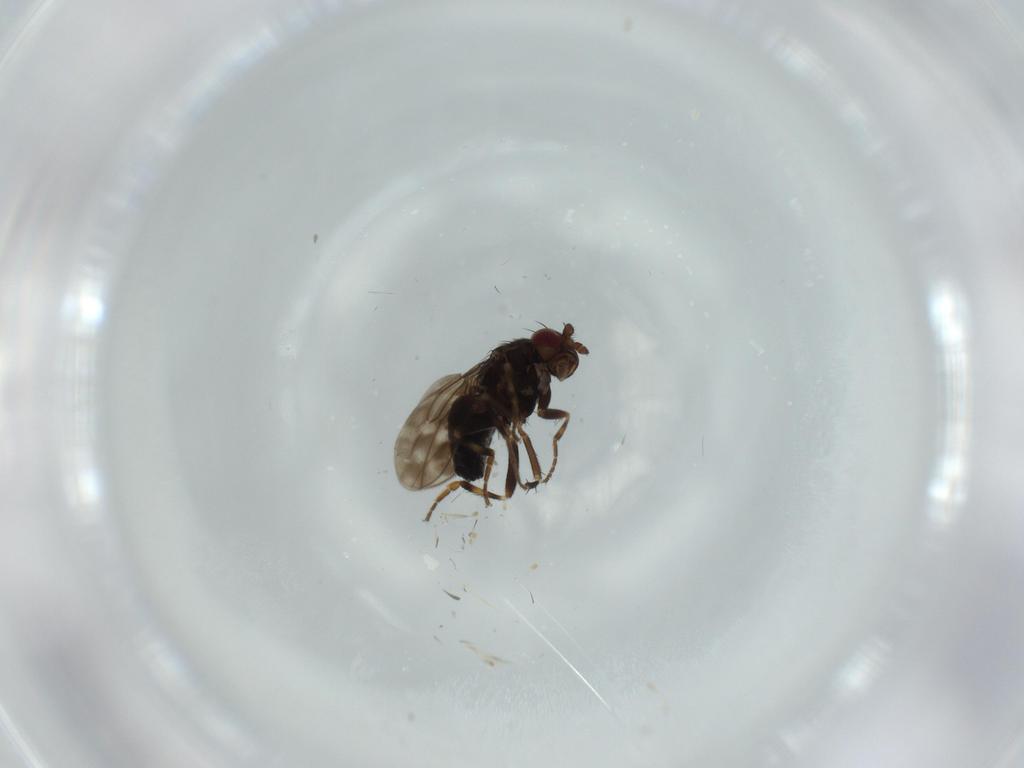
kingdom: Animalia
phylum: Arthropoda
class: Insecta
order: Diptera
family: Sphaeroceridae
